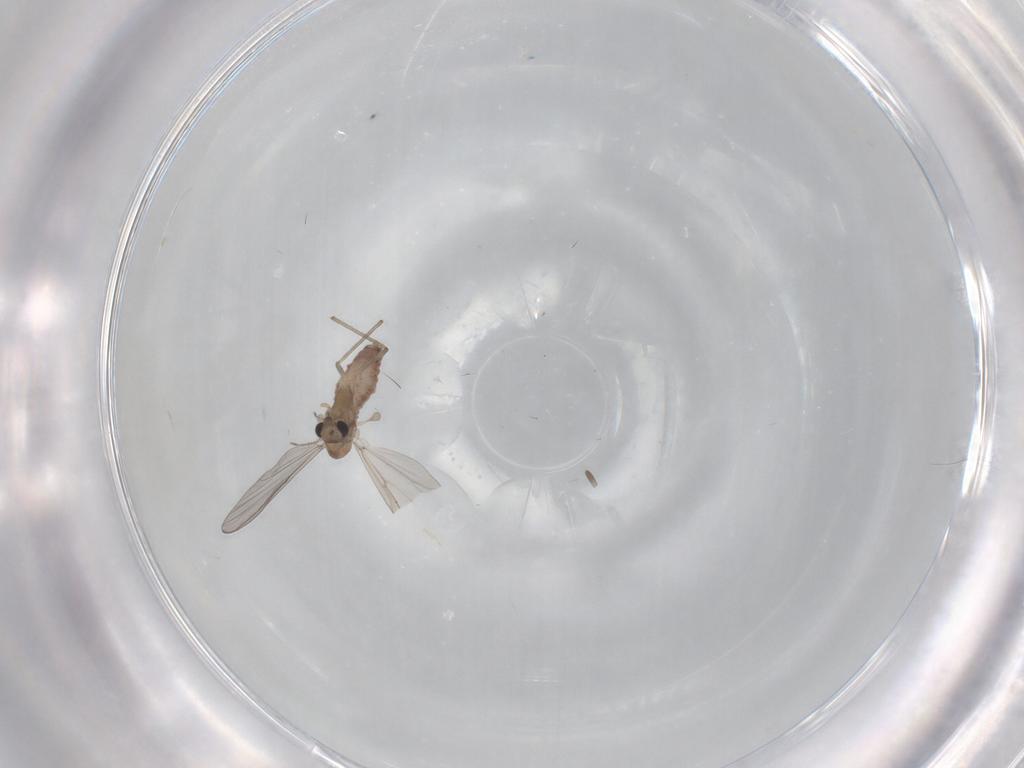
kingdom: Animalia
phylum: Arthropoda
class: Insecta
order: Diptera
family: Chironomidae
